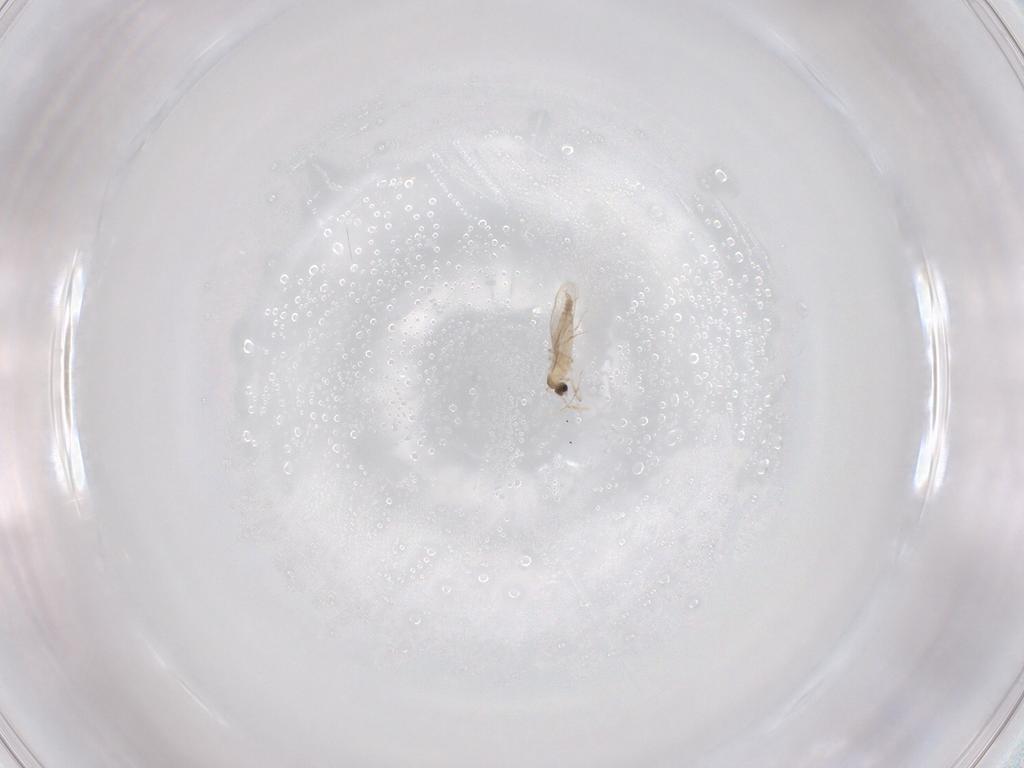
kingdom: Animalia
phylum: Arthropoda
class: Insecta
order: Diptera
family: Cecidomyiidae
